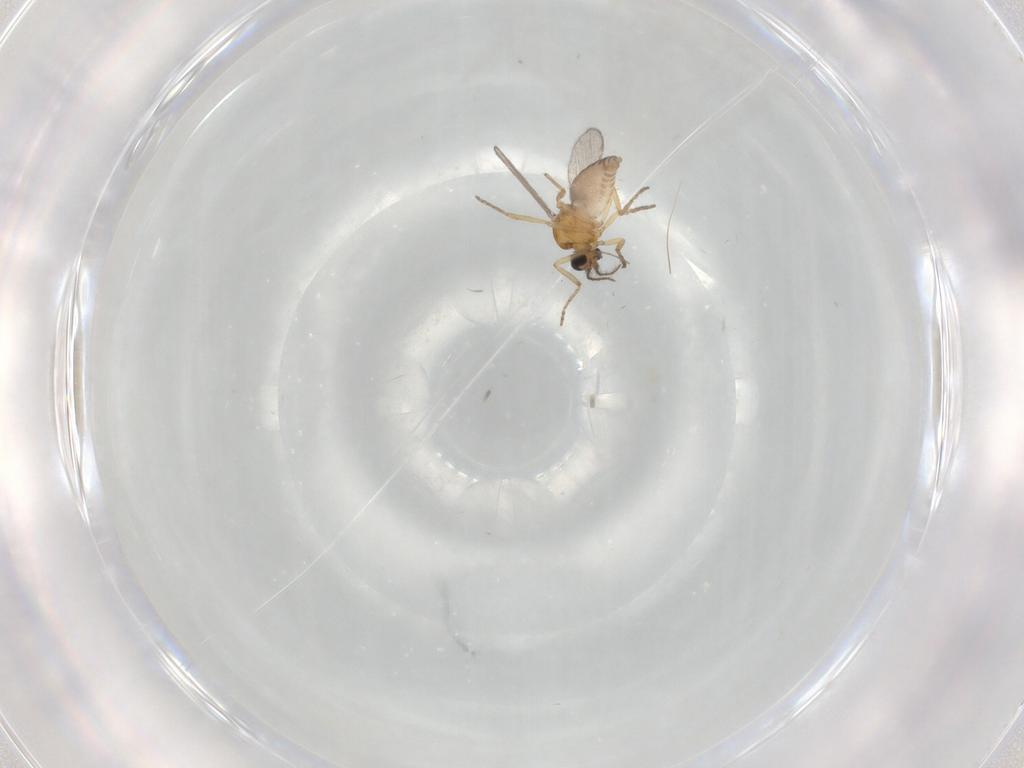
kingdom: Animalia
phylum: Arthropoda
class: Insecta
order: Diptera
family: Ceratopogonidae
